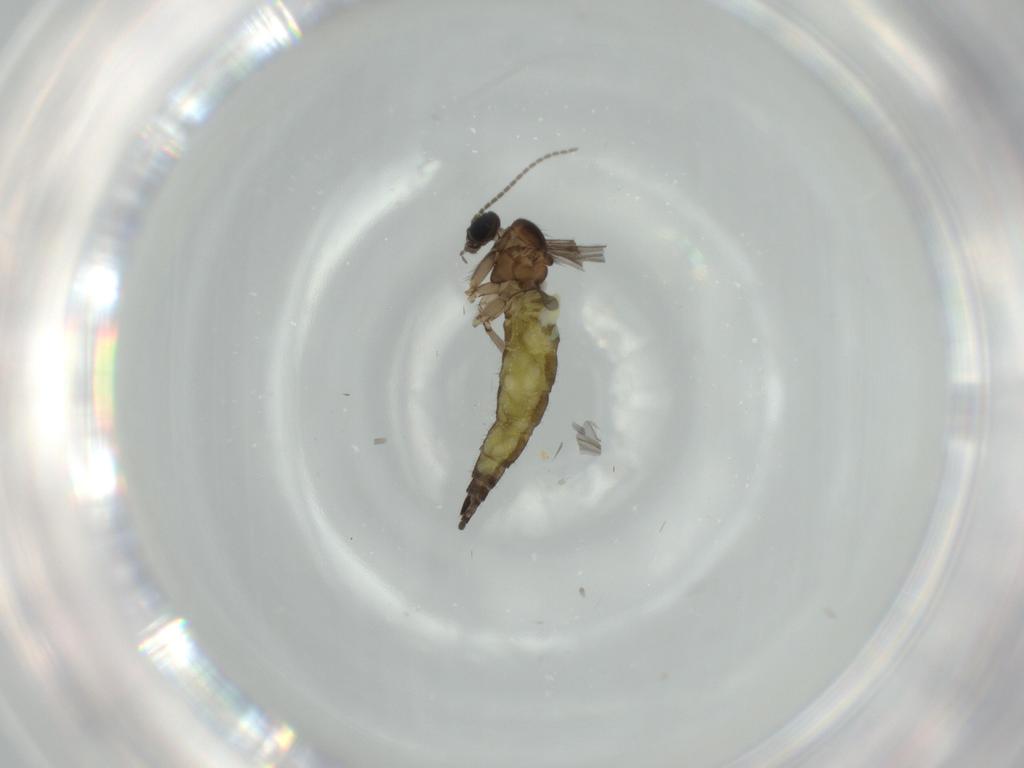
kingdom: Animalia
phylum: Arthropoda
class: Insecta
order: Diptera
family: Sciaridae
